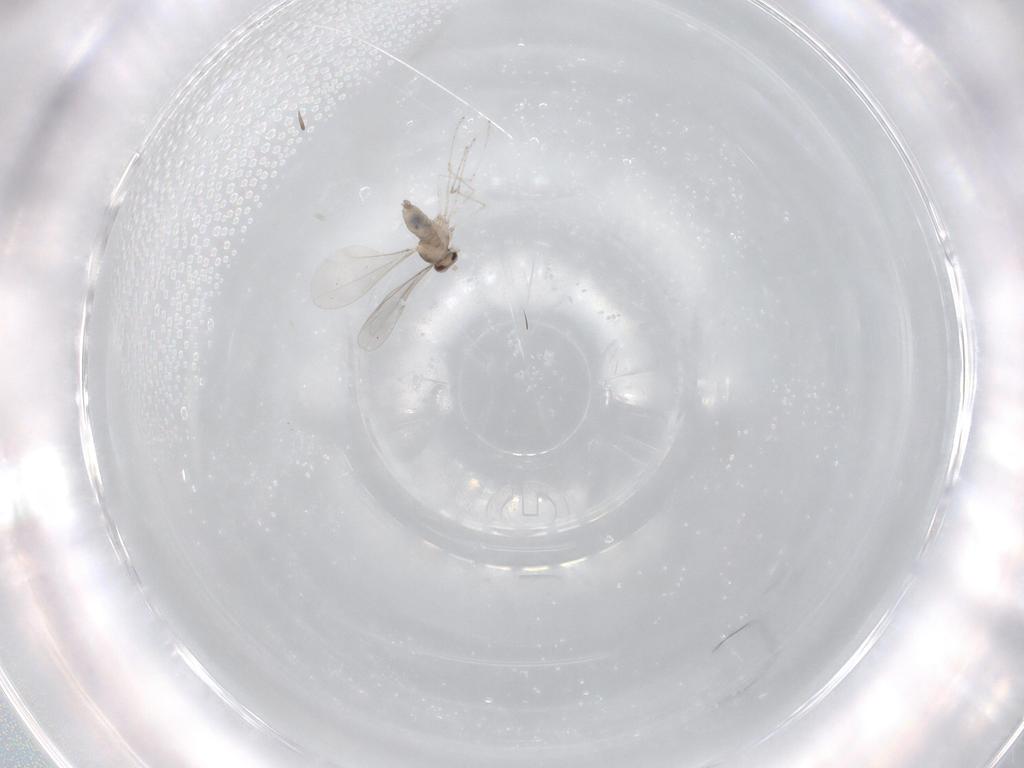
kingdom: Animalia
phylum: Arthropoda
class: Insecta
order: Diptera
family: Cecidomyiidae
